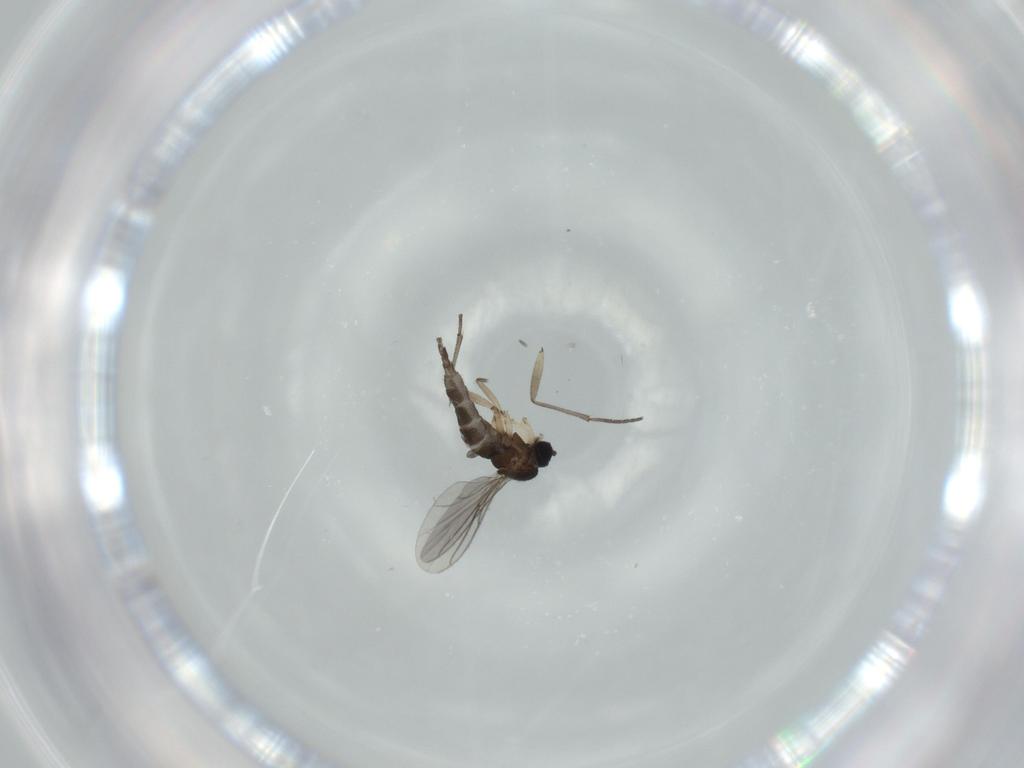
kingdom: Animalia
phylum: Arthropoda
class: Insecta
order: Diptera
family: Sciaridae
